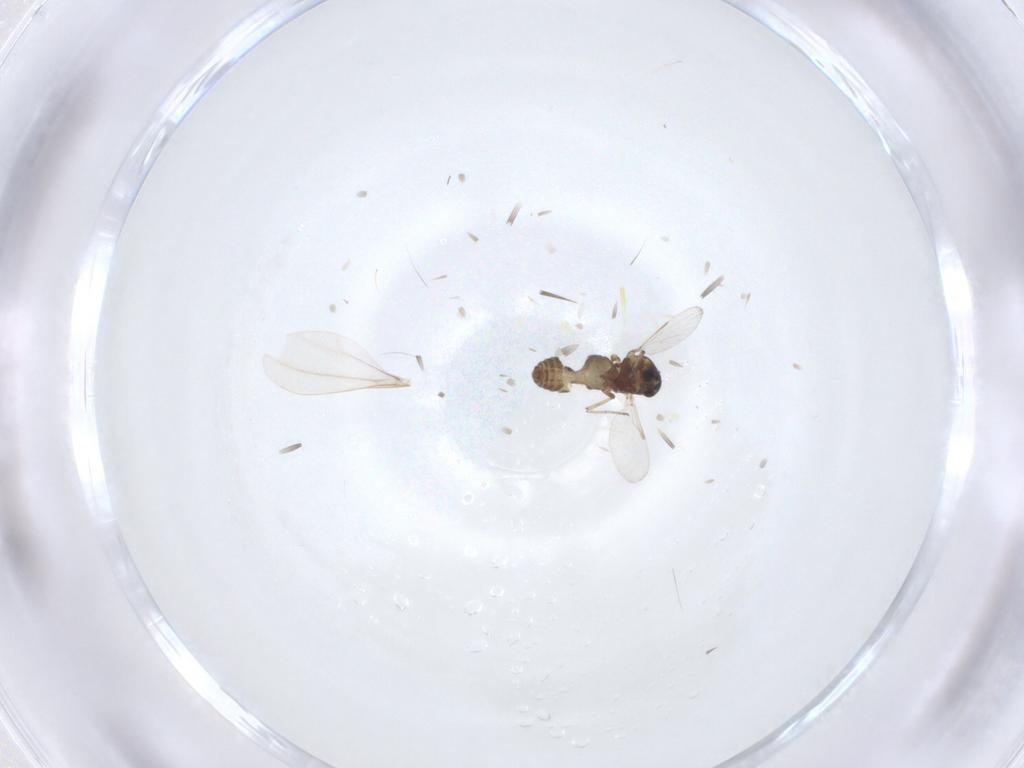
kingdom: Animalia
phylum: Arthropoda
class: Insecta
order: Diptera
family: Ceratopogonidae
